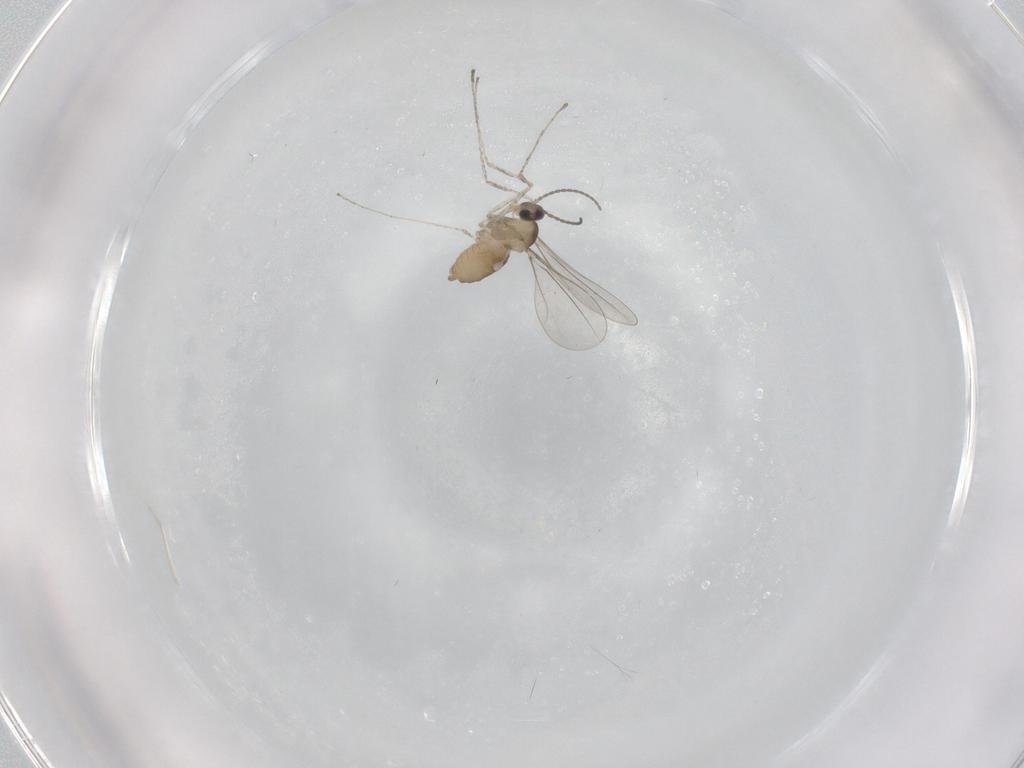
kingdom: Animalia
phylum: Arthropoda
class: Insecta
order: Diptera
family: Cecidomyiidae
